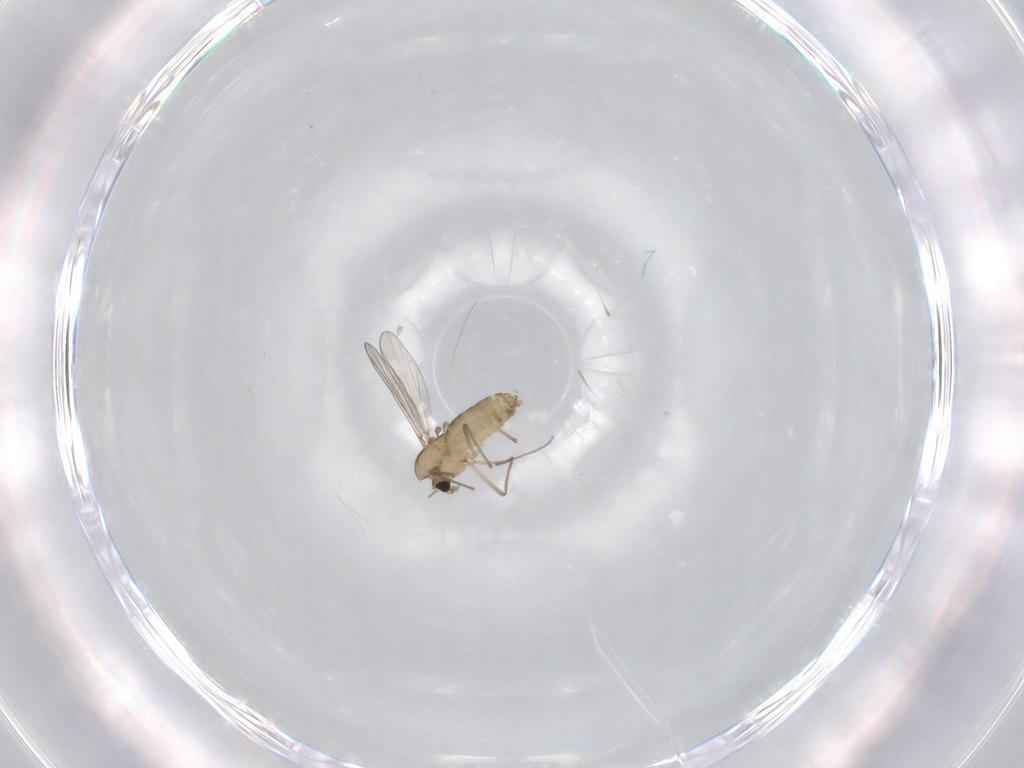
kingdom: Animalia
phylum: Arthropoda
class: Insecta
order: Diptera
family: Chironomidae
